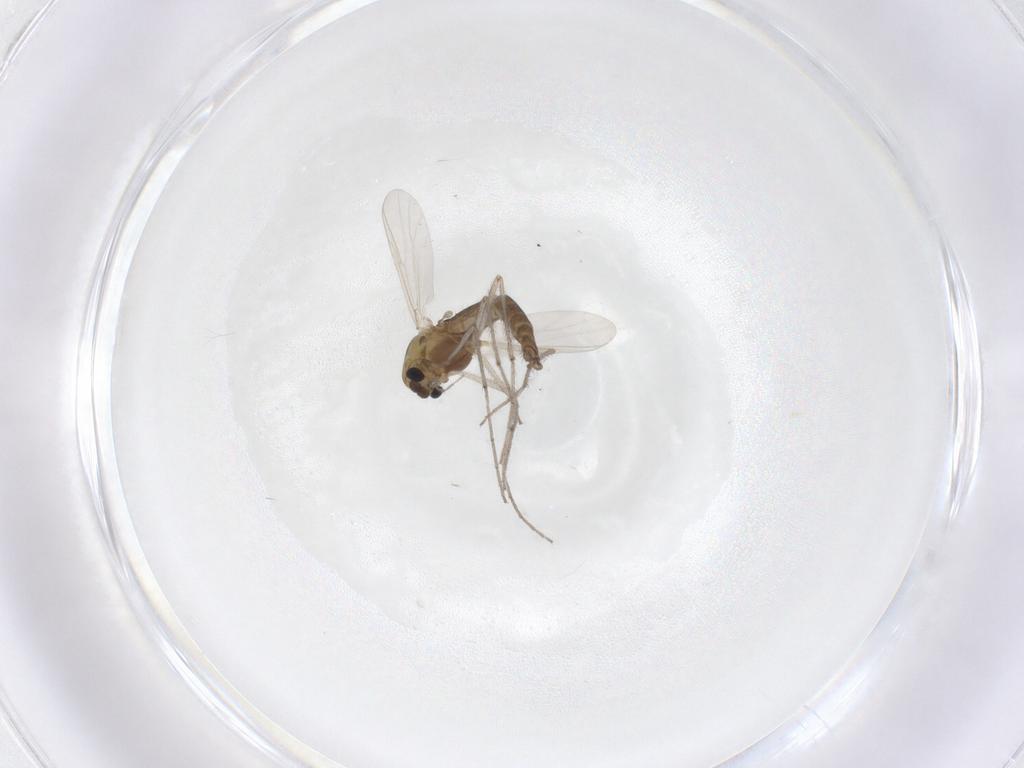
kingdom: Animalia
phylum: Arthropoda
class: Insecta
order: Diptera
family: Chironomidae
